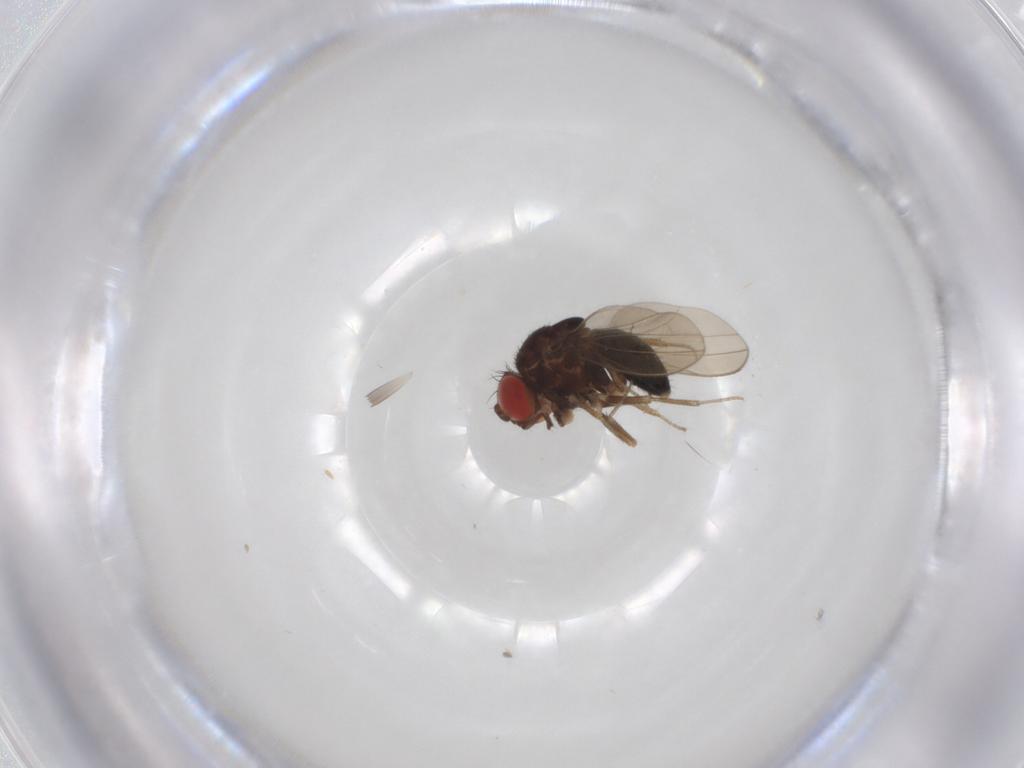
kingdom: Animalia
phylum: Arthropoda
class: Insecta
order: Diptera
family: Drosophilidae
